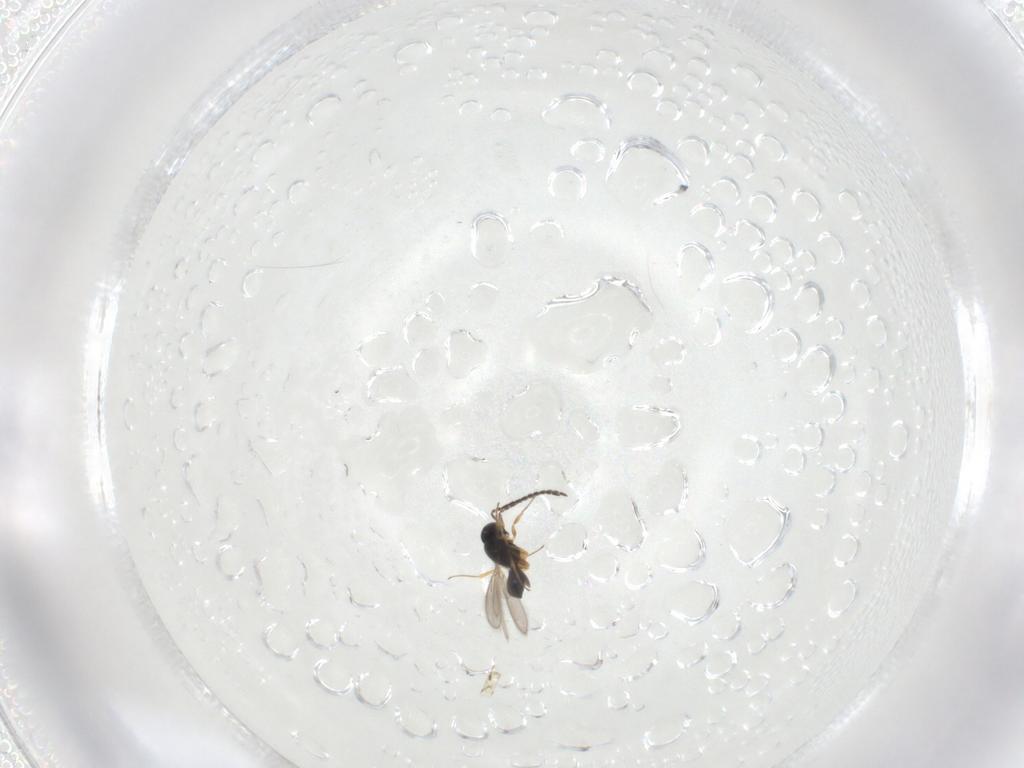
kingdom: Animalia
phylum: Arthropoda
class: Insecta
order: Hymenoptera
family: Scelionidae
